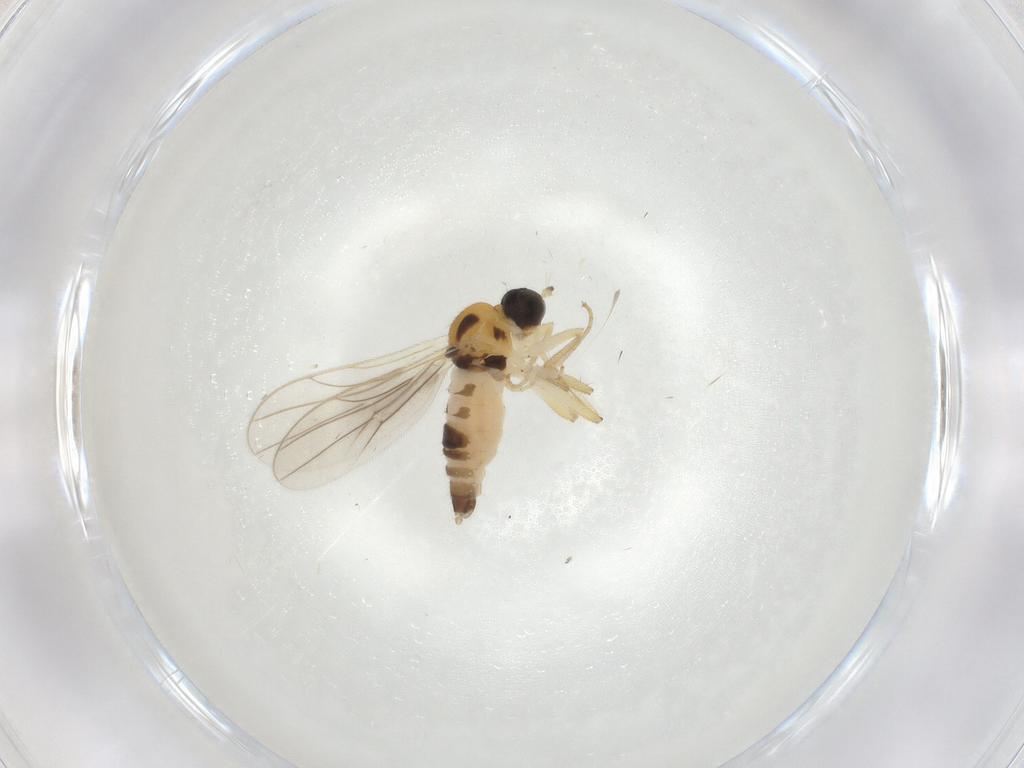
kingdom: Animalia
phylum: Arthropoda
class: Insecta
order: Diptera
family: Hybotidae
